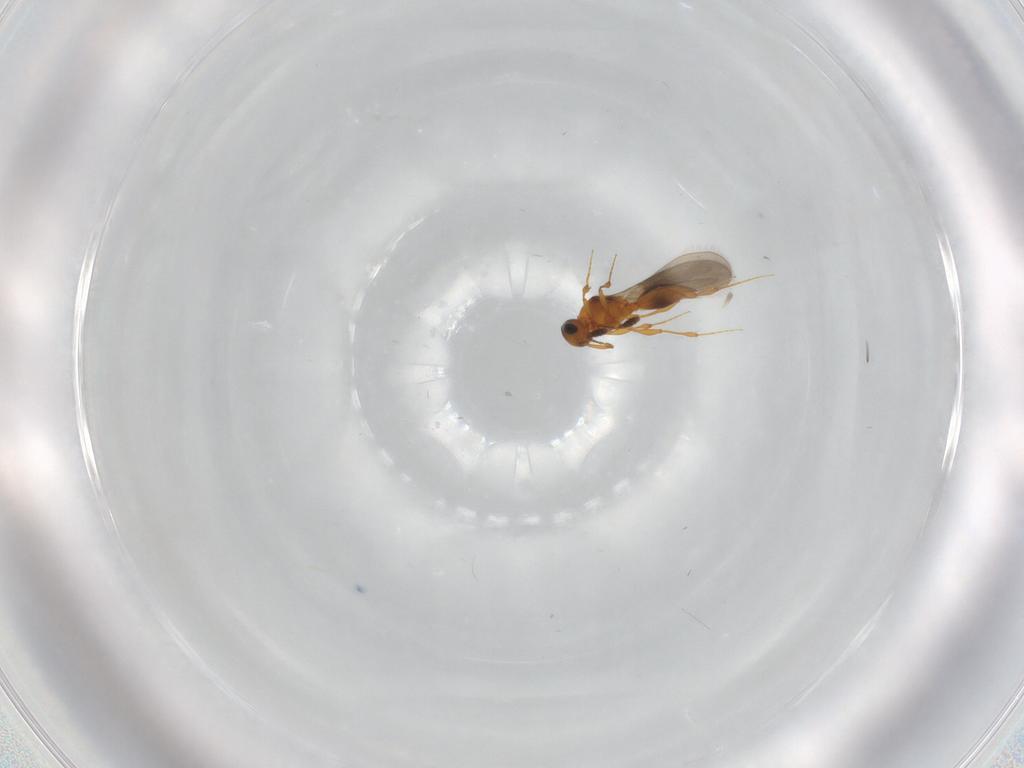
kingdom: Animalia
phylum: Arthropoda
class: Insecta
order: Hymenoptera
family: Platygastridae
